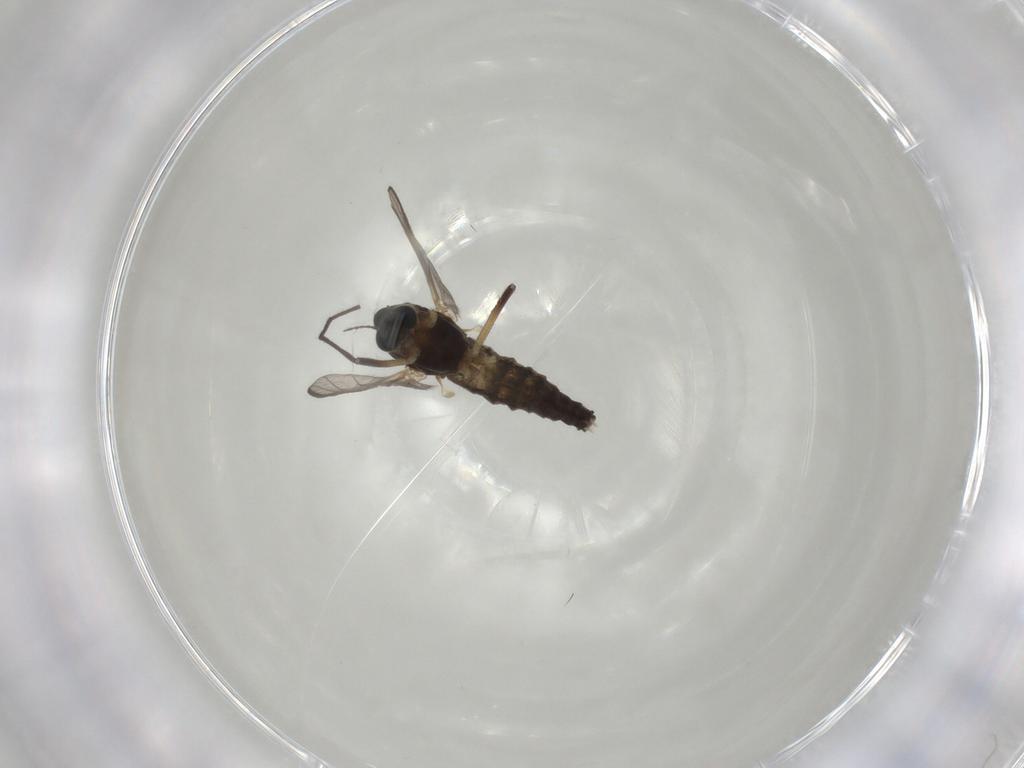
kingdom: Animalia
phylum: Arthropoda
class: Insecta
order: Diptera
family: Chironomidae
